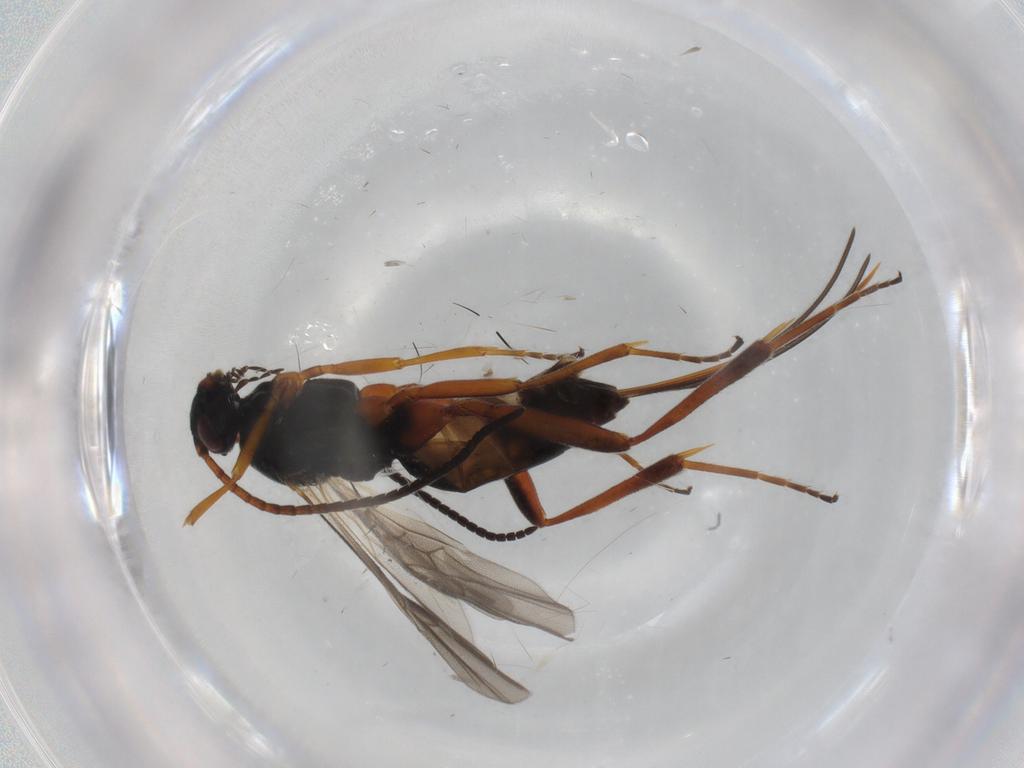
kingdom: Animalia
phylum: Arthropoda
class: Insecta
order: Hymenoptera
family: Braconidae
